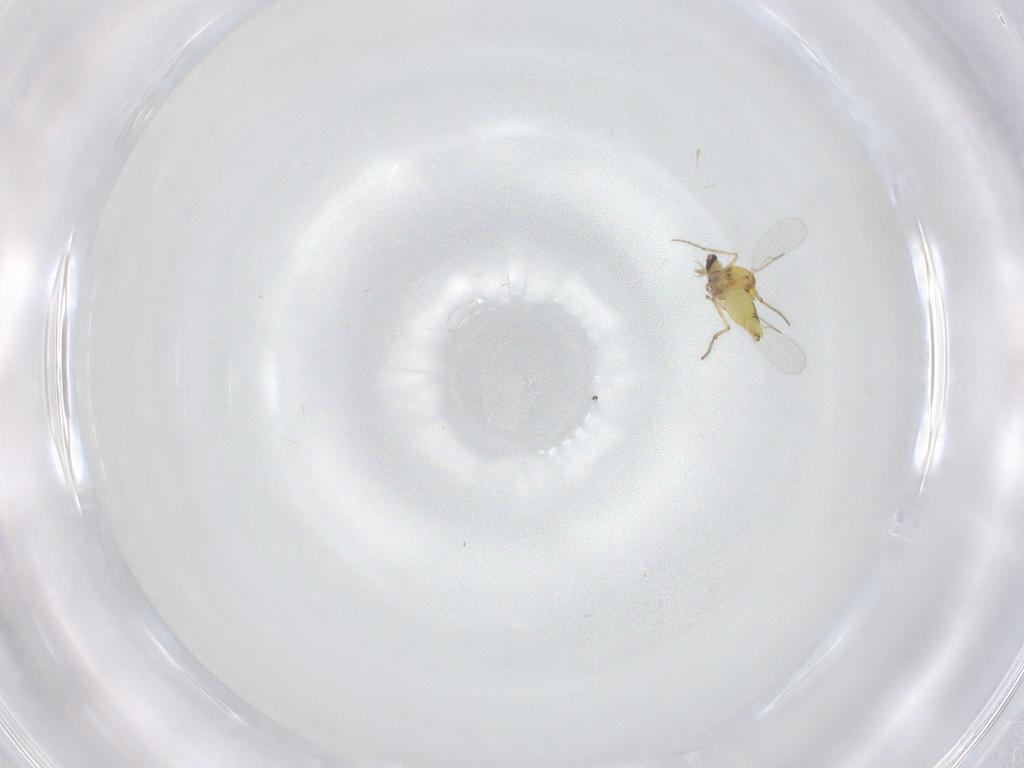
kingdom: Animalia
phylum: Arthropoda
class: Insecta
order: Diptera
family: Ceratopogonidae
